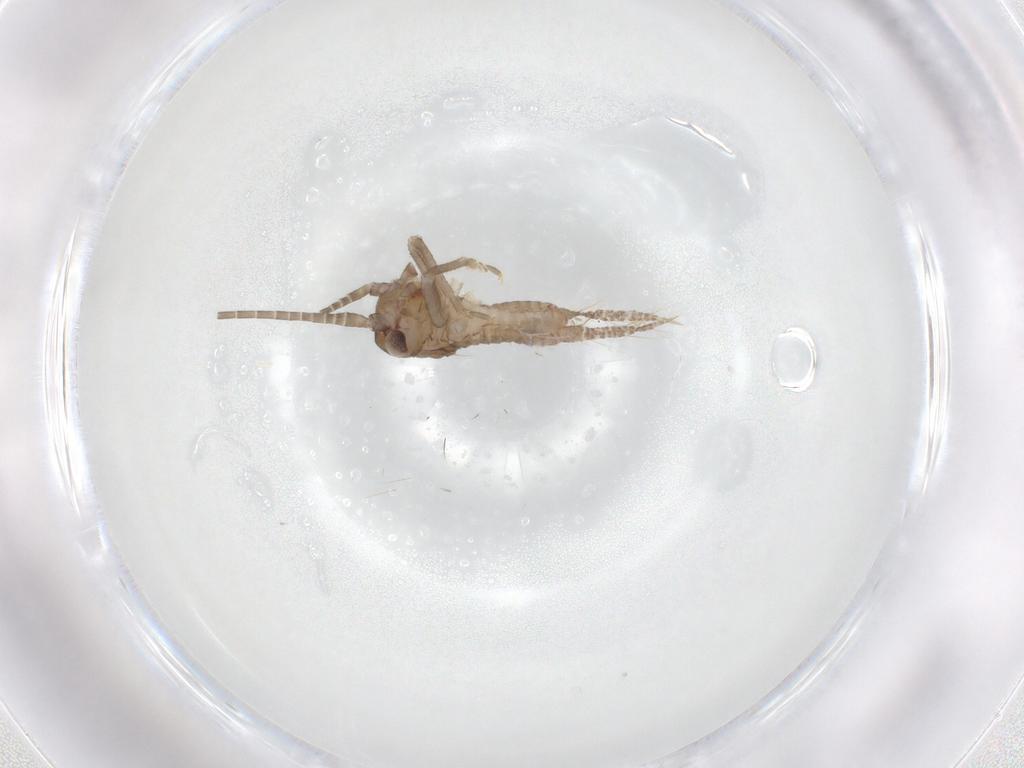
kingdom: Animalia
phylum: Arthropoda
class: Insecta
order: Orthoptera
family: Gryllidae
